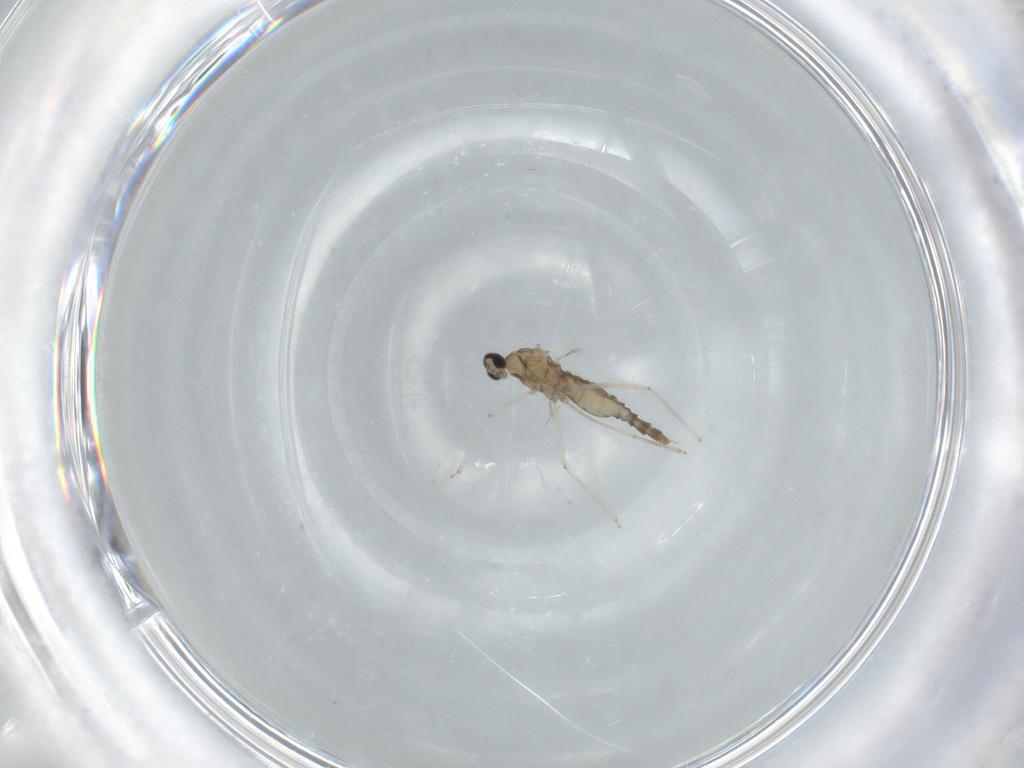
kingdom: Animalia
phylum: Arthropoda
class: Insecta
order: Diptera
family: Cecidomyiidae
